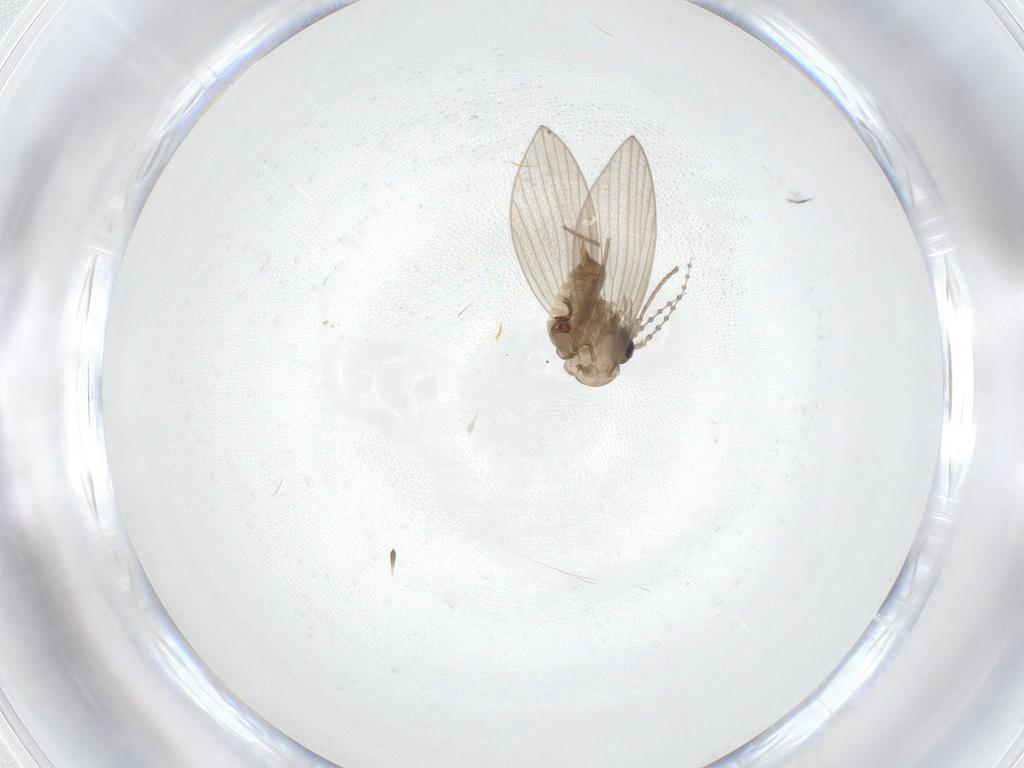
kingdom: Animalia
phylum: Arthropoda
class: Insecta
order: Diptera
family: Psychodidae
